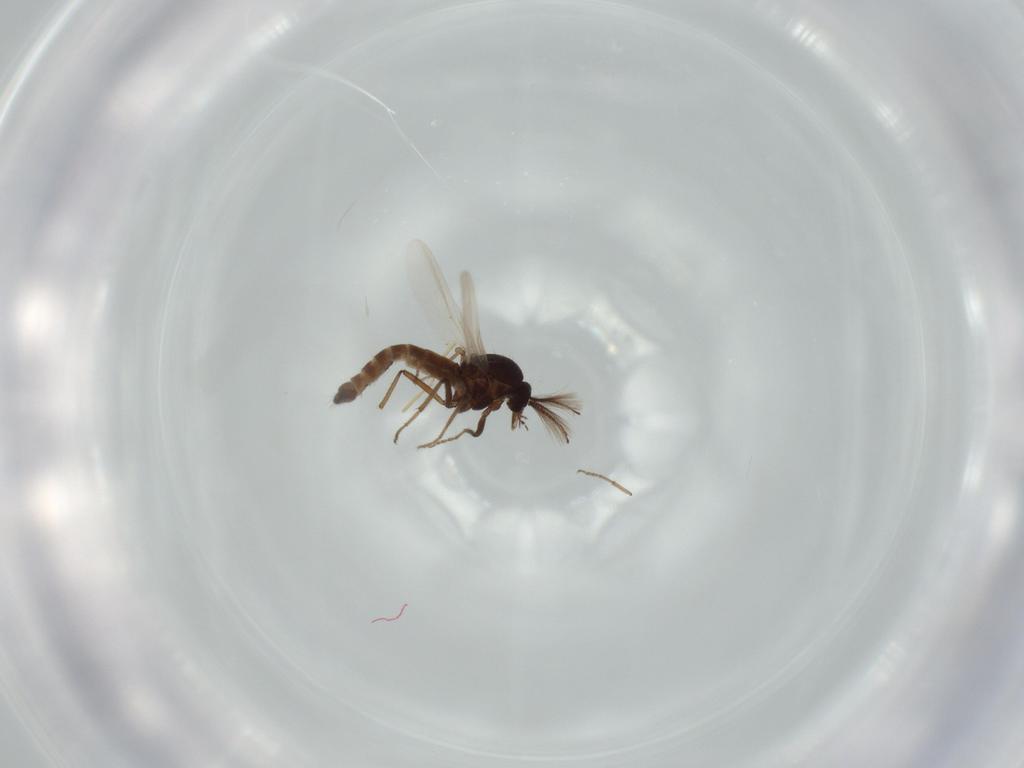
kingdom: Animalia
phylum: Arthropoda
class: Insecta
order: Diptera
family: Ceratopogonidae
